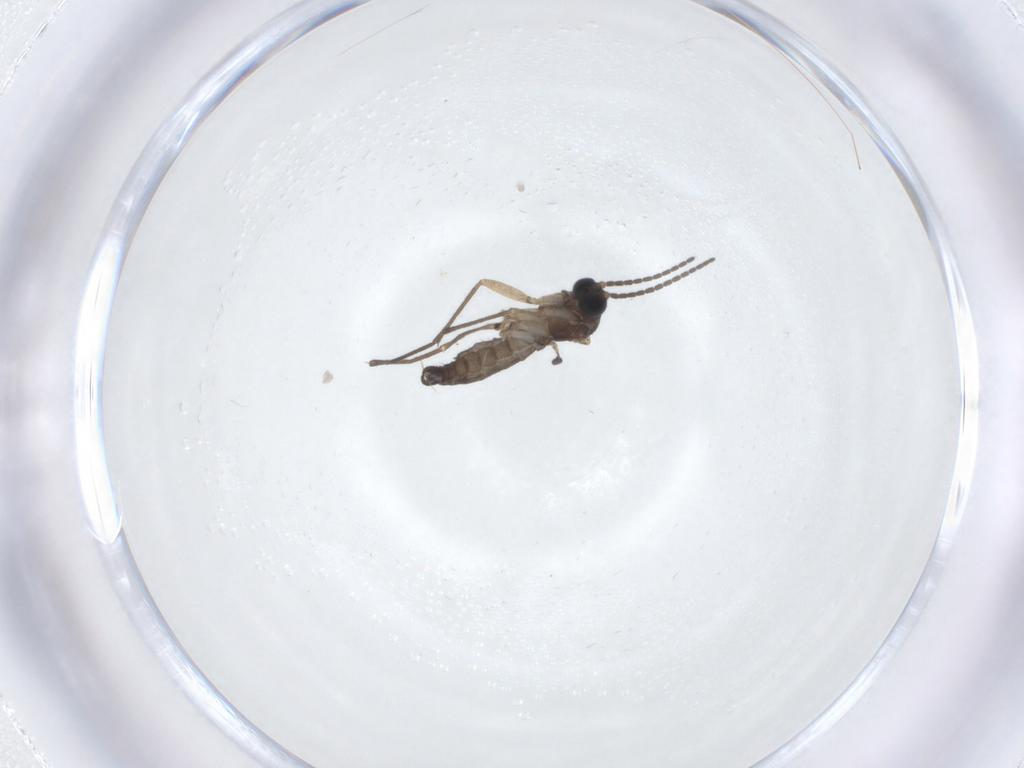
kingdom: Animalia
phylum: Arthropoda
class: Insecta
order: Diptera
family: Sciaridae
